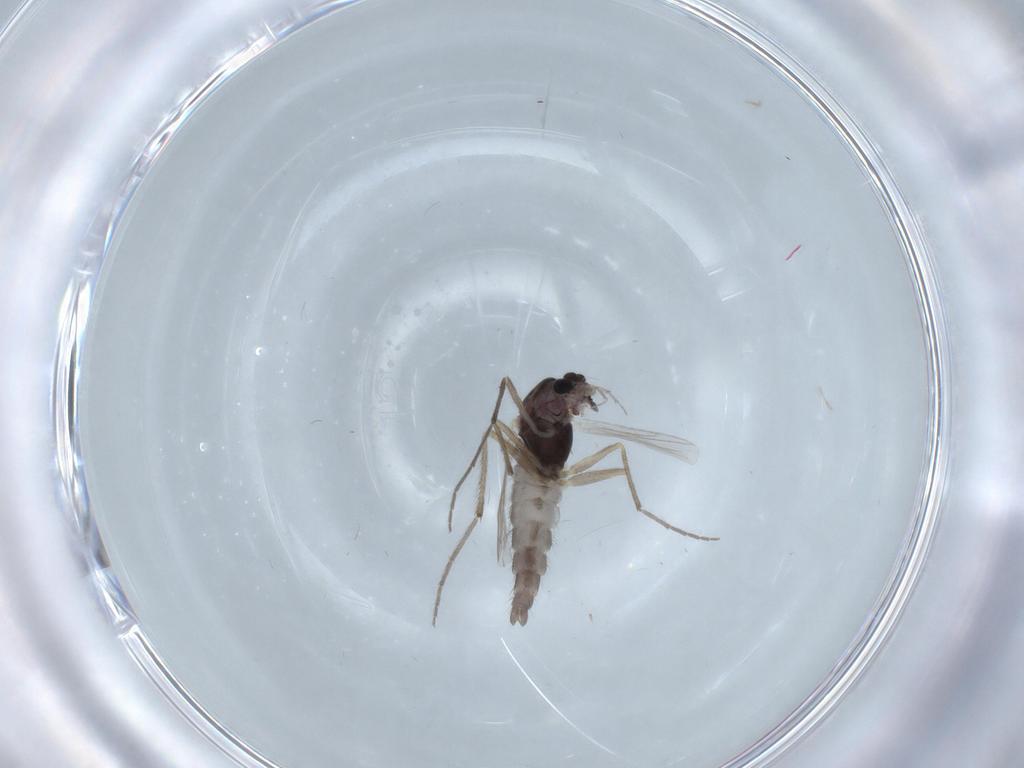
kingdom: Animalia
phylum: Arthropoda
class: Insecta
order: Diptera
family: Chironomidae
